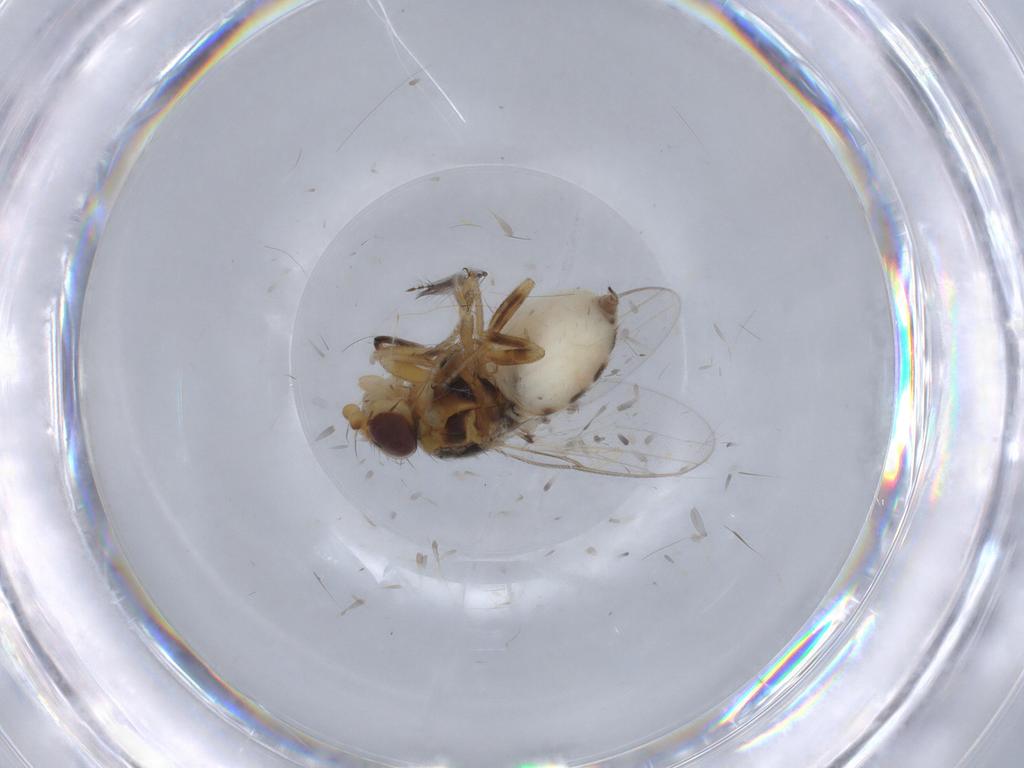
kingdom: Animalia
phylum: Arthropoda
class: Insecta
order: Diptera
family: Chloropidae
